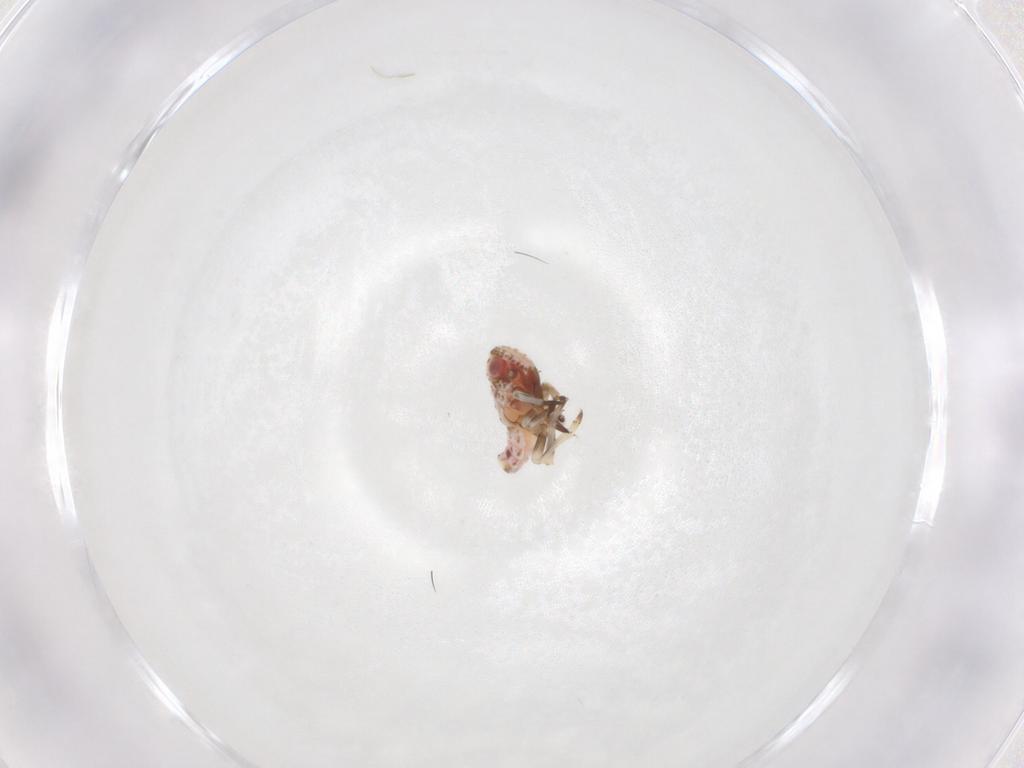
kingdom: Animalia
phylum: Arthropoda
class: Insecta
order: Hemiptera
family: Tropiduchidae
